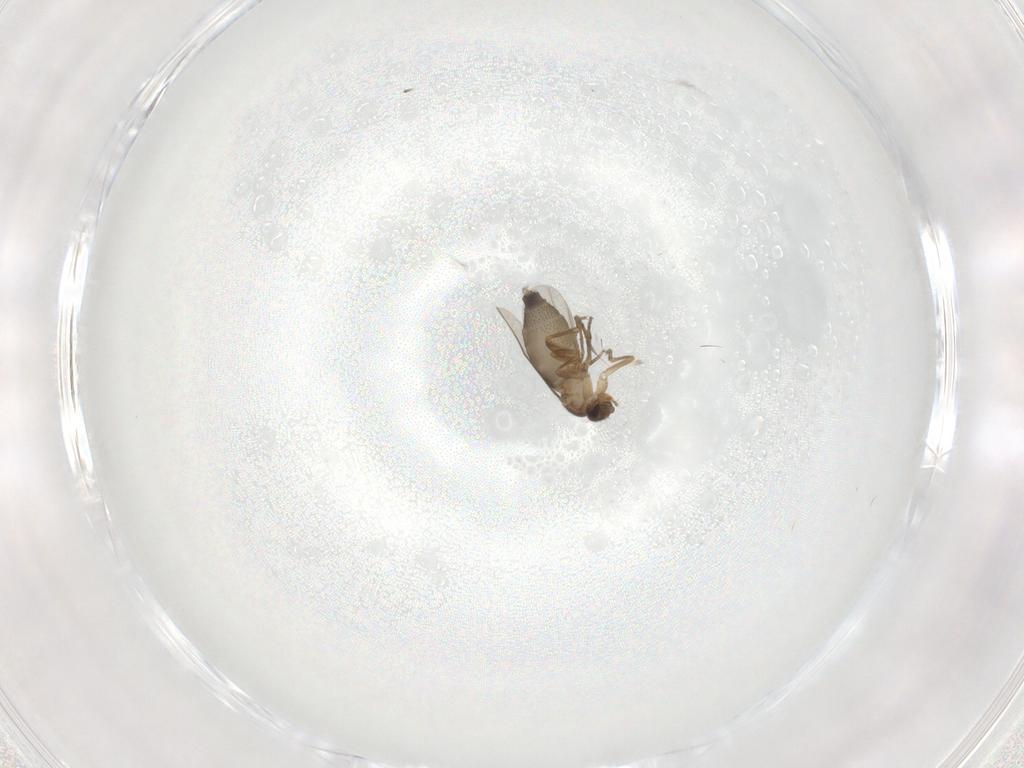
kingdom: Animalia
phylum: Arthropoda
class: Insecta
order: Diptera
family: Phoridae
